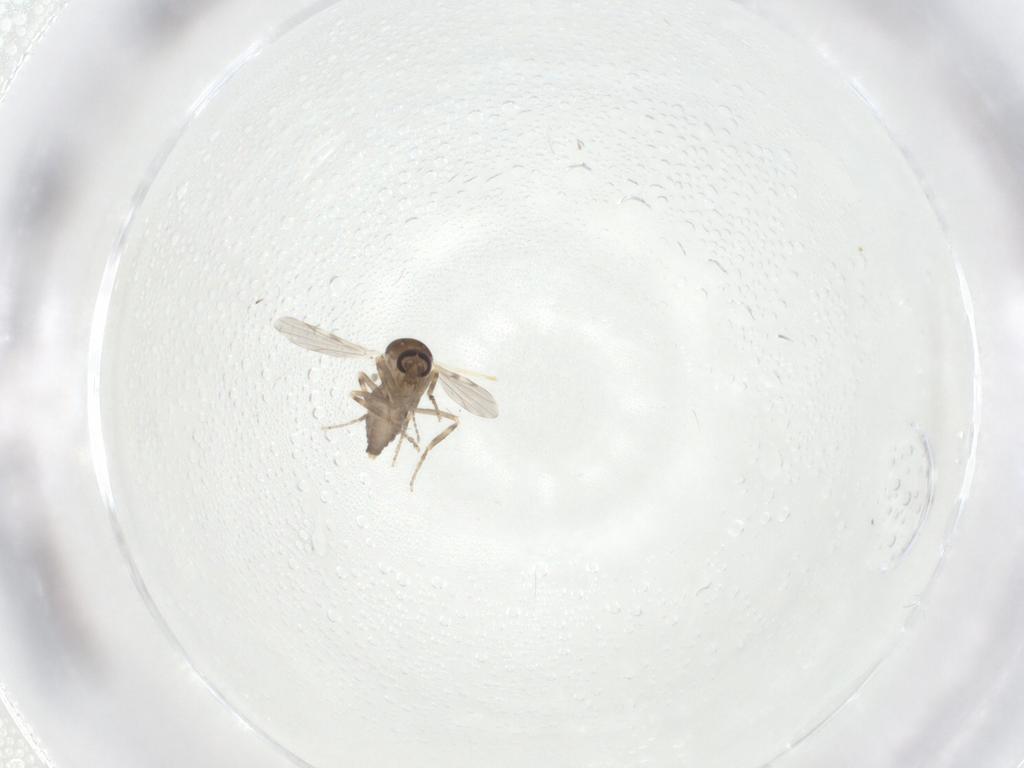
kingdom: Animalia
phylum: Arthropoda
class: Insecta
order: Diptera
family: Ceratopogonidae
